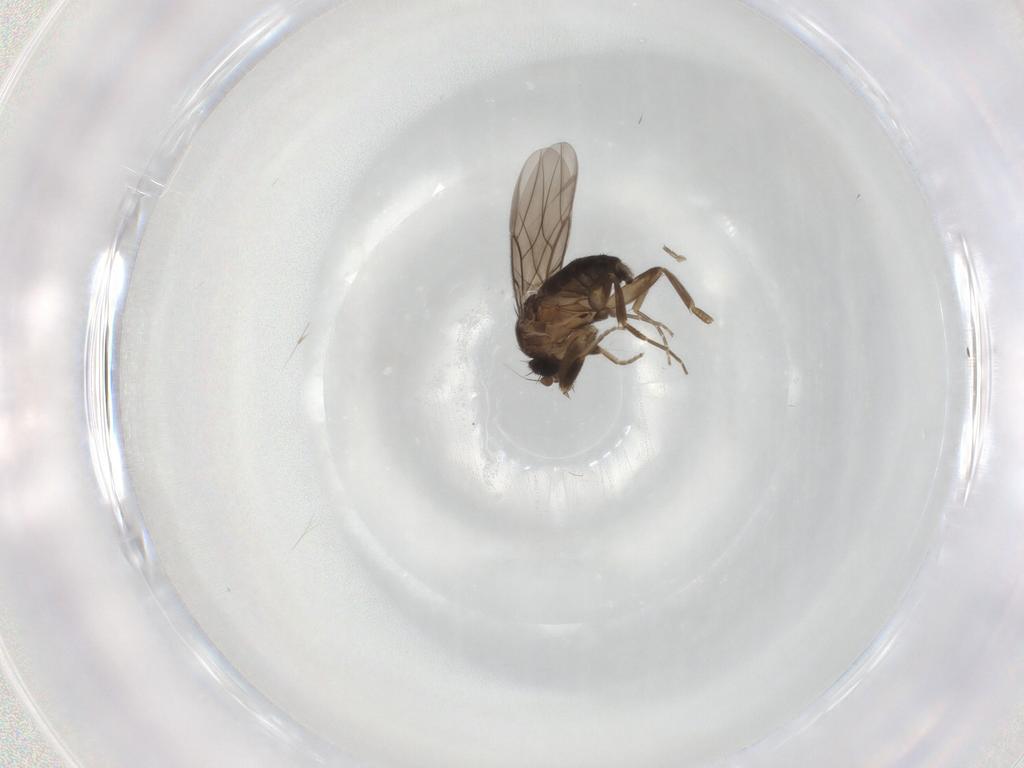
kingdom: Animalia
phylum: Arthropoda
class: Insecta
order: Diptera
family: Phoridae
